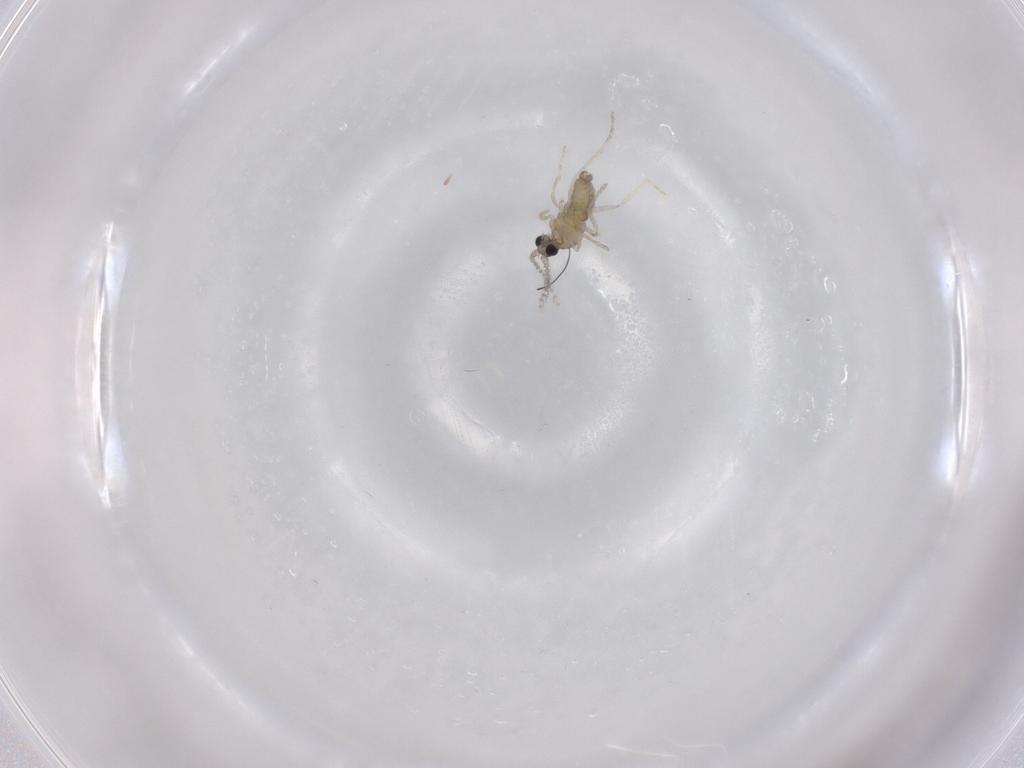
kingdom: Animalia
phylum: Arthropoda
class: Insecta
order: Diptera
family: Cecidomyiidae
